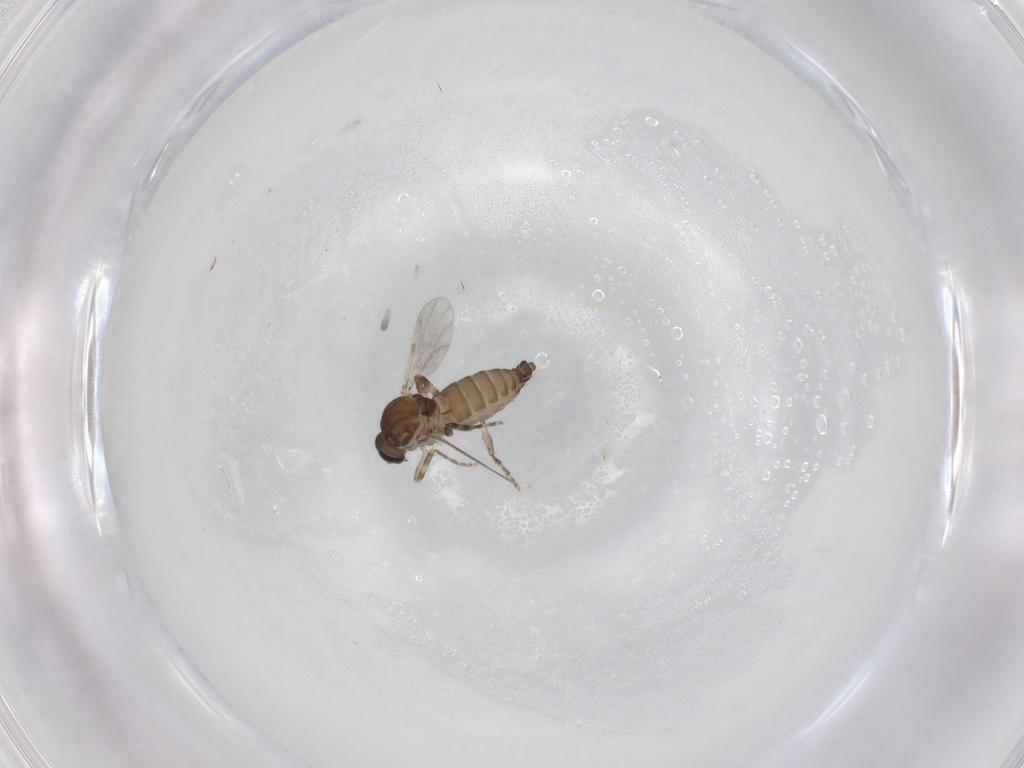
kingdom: Animalia
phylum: Arthropoda
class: Insecta
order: Diptera
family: Ceratopogonidae
